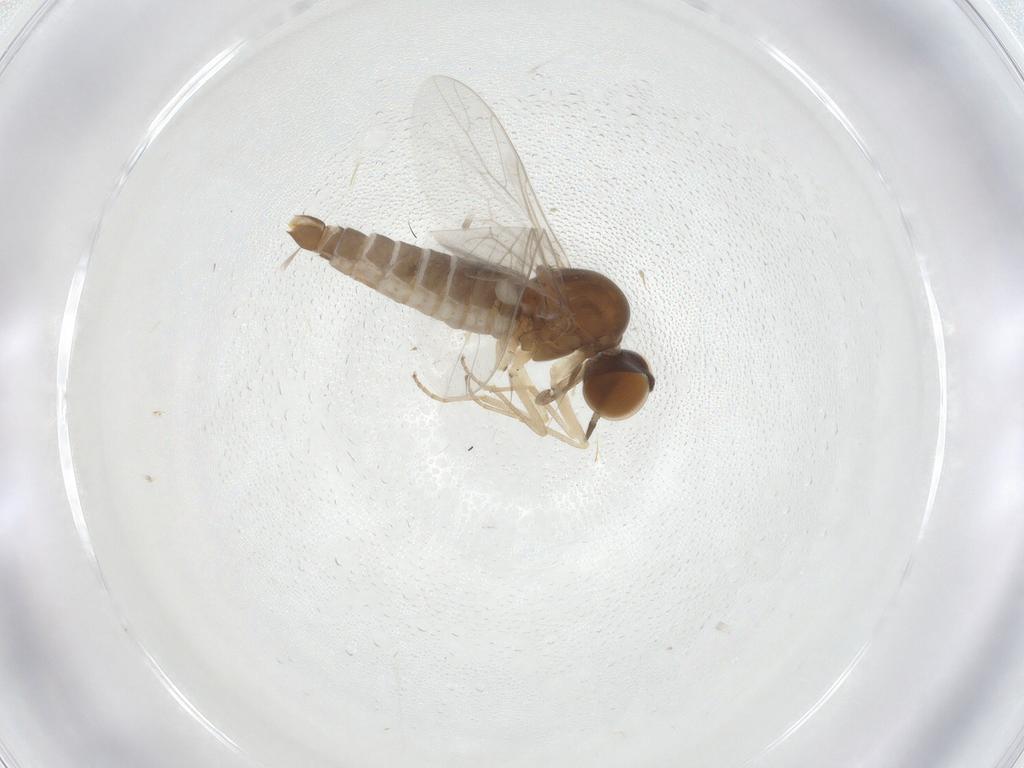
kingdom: Animalia
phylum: Arthropoda
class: Insecta
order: Diptera
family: Scenopinidae
